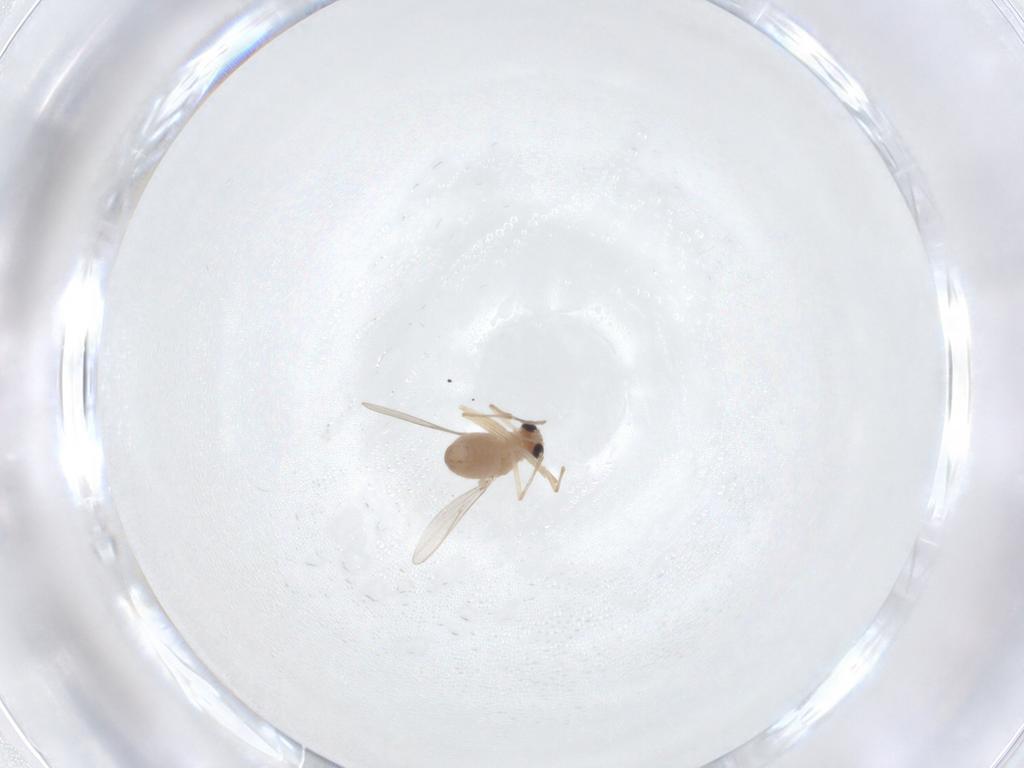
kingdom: Animalia
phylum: Arthropoda
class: Insecta
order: Diptera
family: Chironomidae
